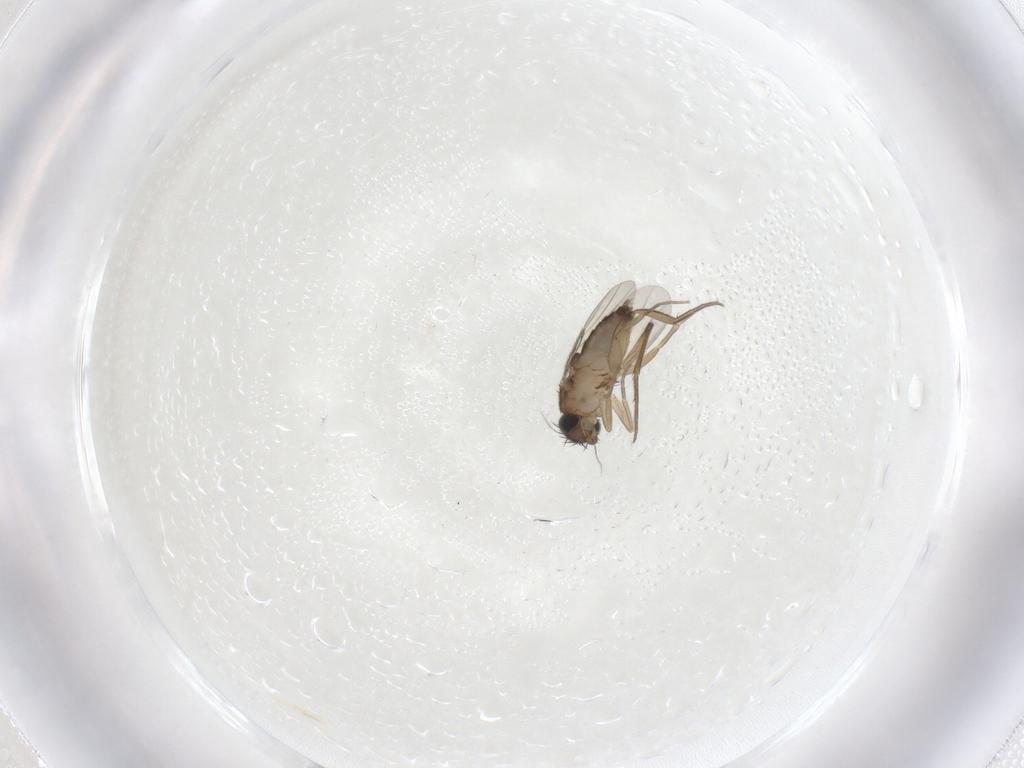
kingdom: Animalia
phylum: Arthropoda
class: Insecta
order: Diptera
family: Phoridae
